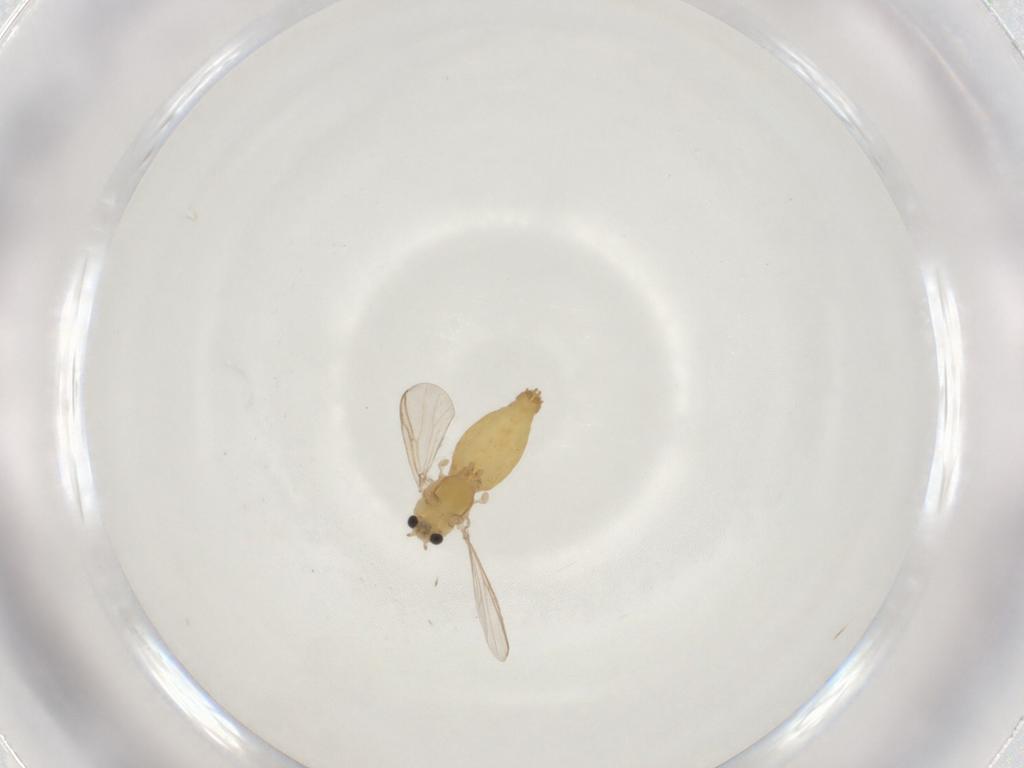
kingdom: Animalia
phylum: Arthropoda
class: Insecta
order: Diptera
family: Chironomidae
